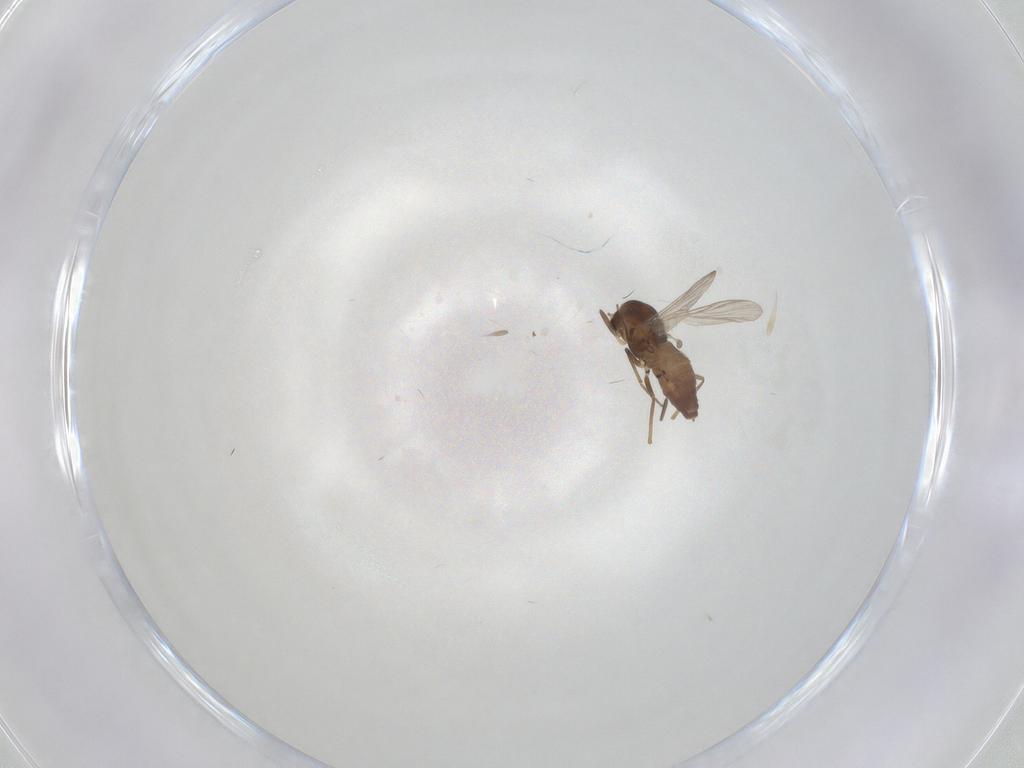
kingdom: Animalia
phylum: Arthropoda
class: Insecta
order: Diptera
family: Chironomidae
